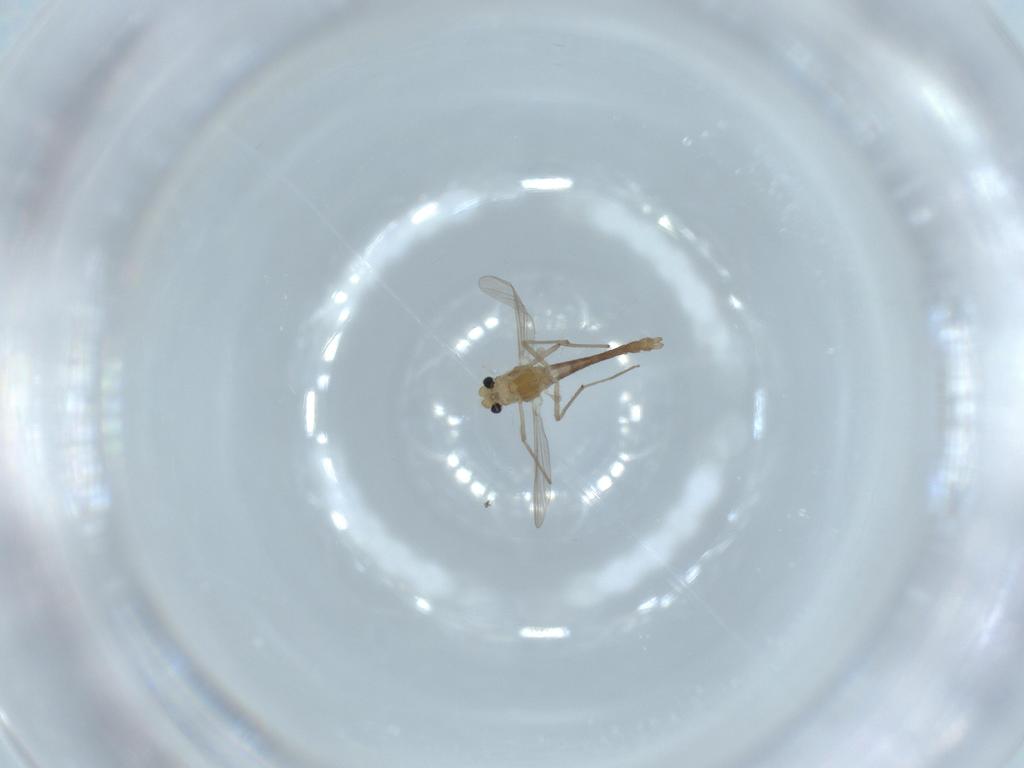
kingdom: Animalia
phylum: Arthropoda
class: Insecta
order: Diptera
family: Chironomidae
